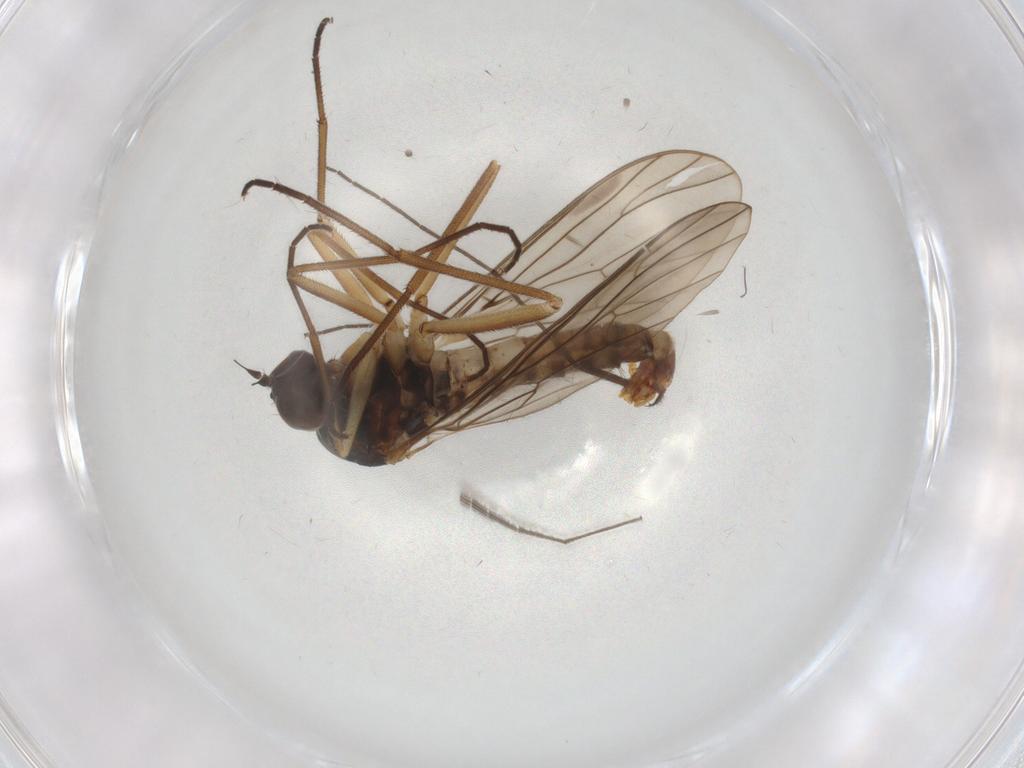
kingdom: Animalia
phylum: Arthropoda
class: Insecta
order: Diptera
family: Empididae
